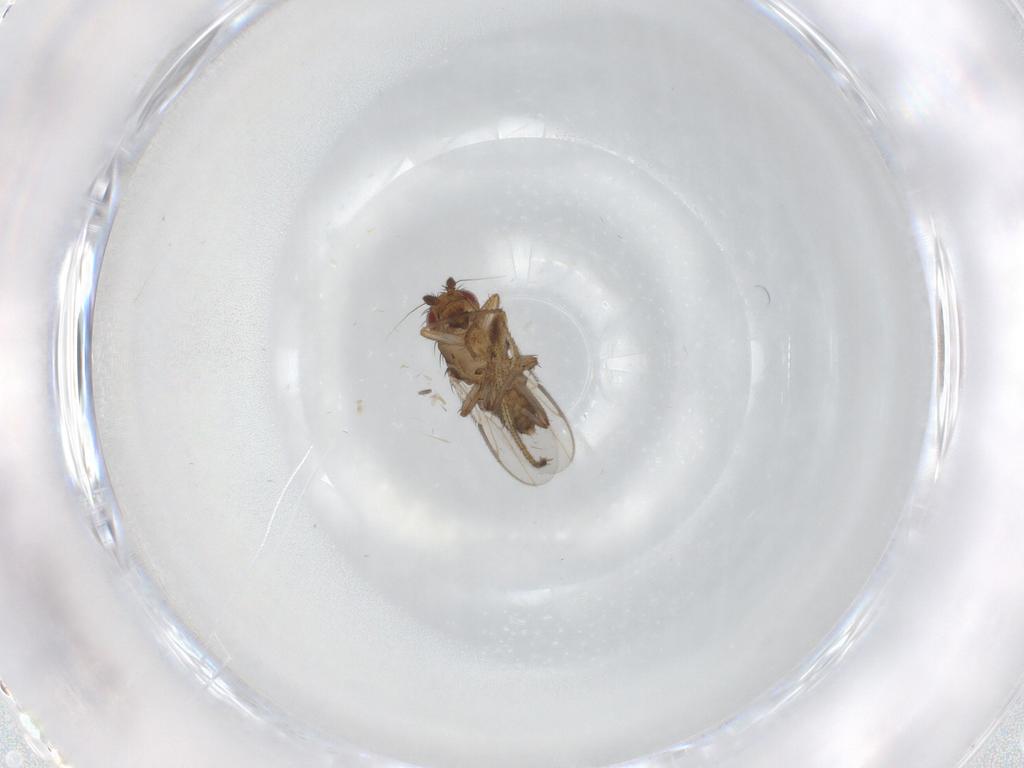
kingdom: Animalia
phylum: Arthropoda
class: Insecta
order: Diptera
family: Dolichopodidae
